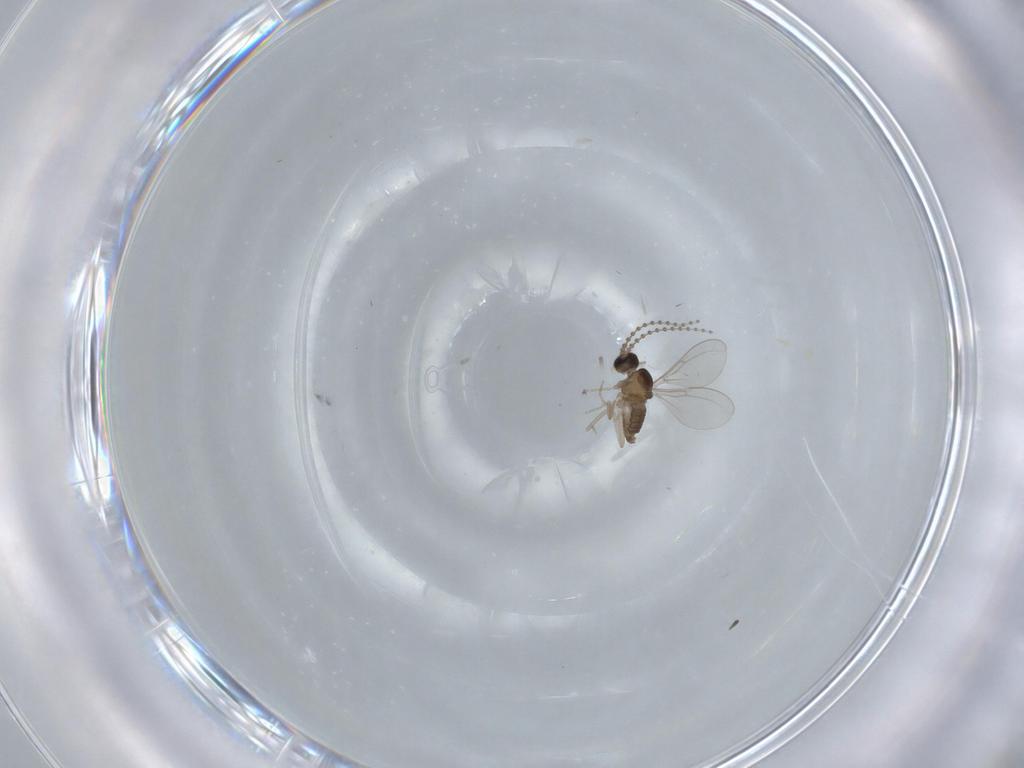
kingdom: Animalia
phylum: Arthropoda
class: Insecta
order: Diptera
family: Cecidomyiidae
